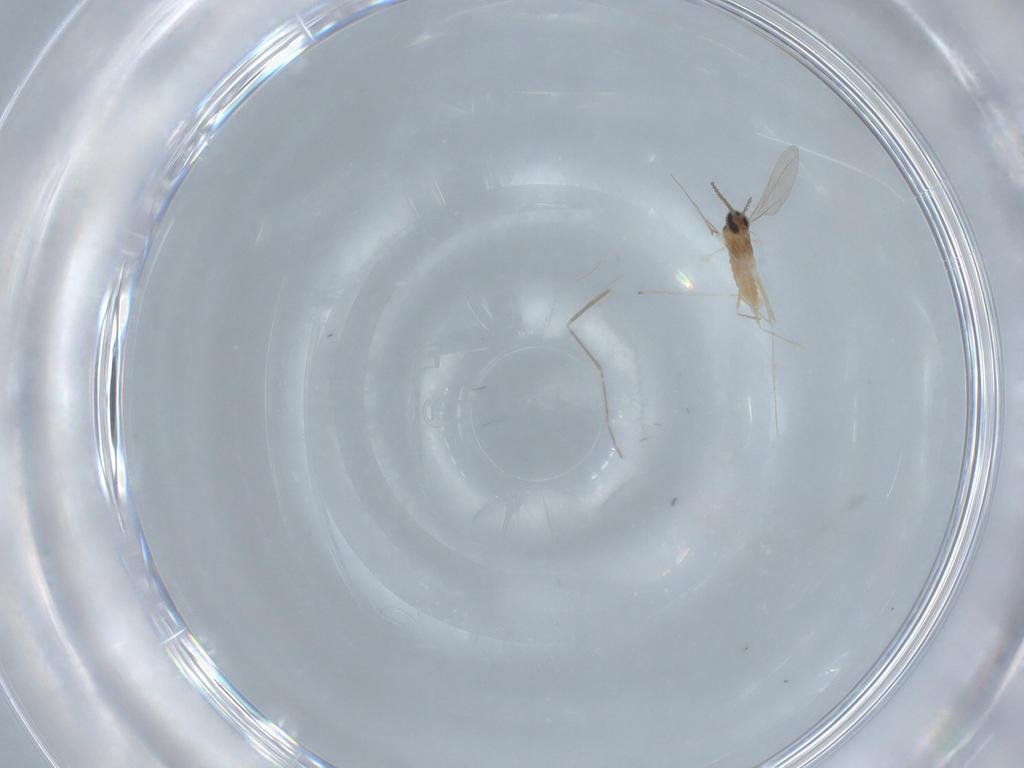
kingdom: Animalia
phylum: Arthropoda
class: Insecta
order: Diptera
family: Cecidomyiidae
